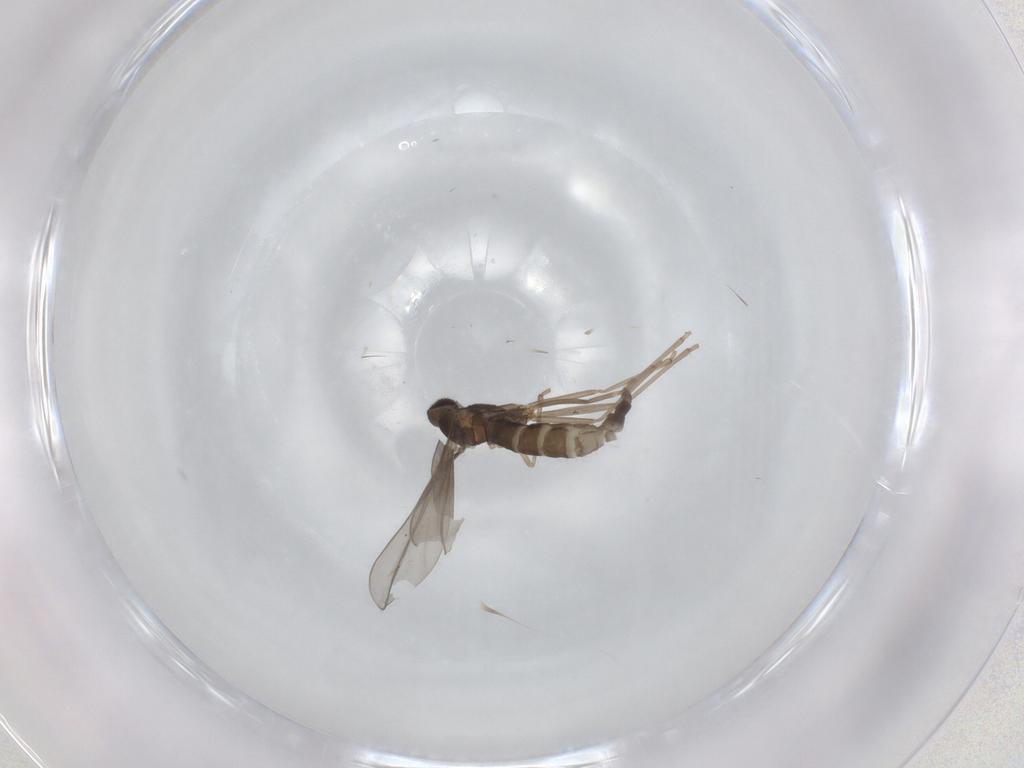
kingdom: Animalia
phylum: Arthropoda
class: Insecta
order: Diptera
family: Cecidomyiidae
